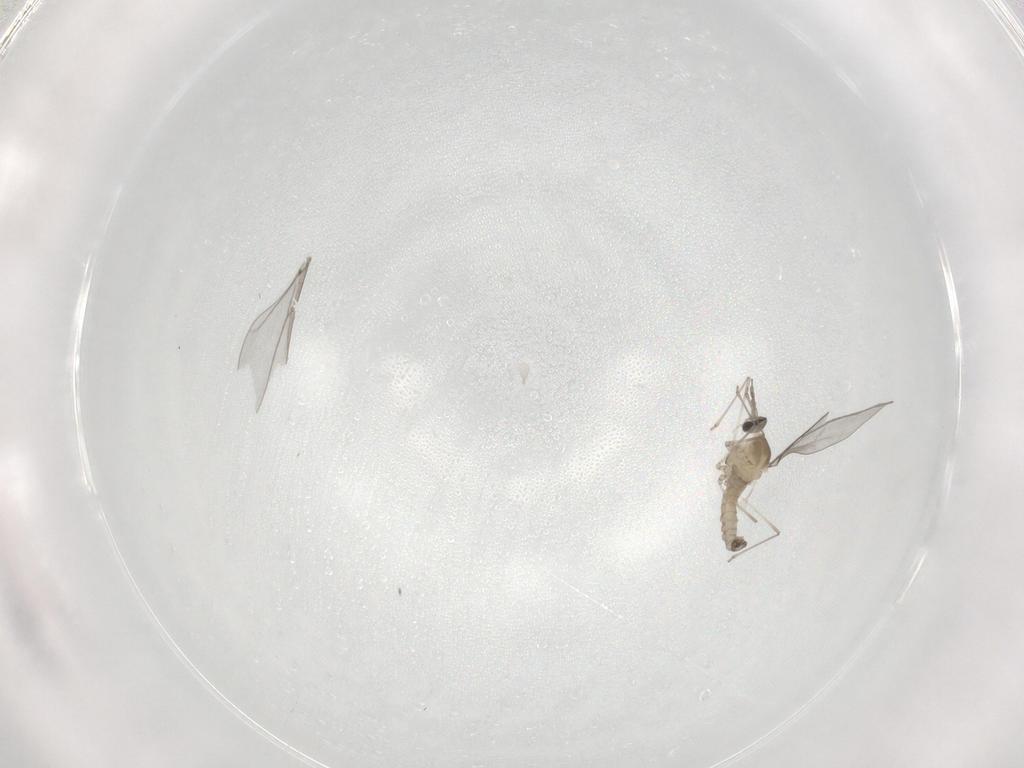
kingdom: Animalia
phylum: Arthropoda
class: Insecta
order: Diptera
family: Cecidomyiidae
